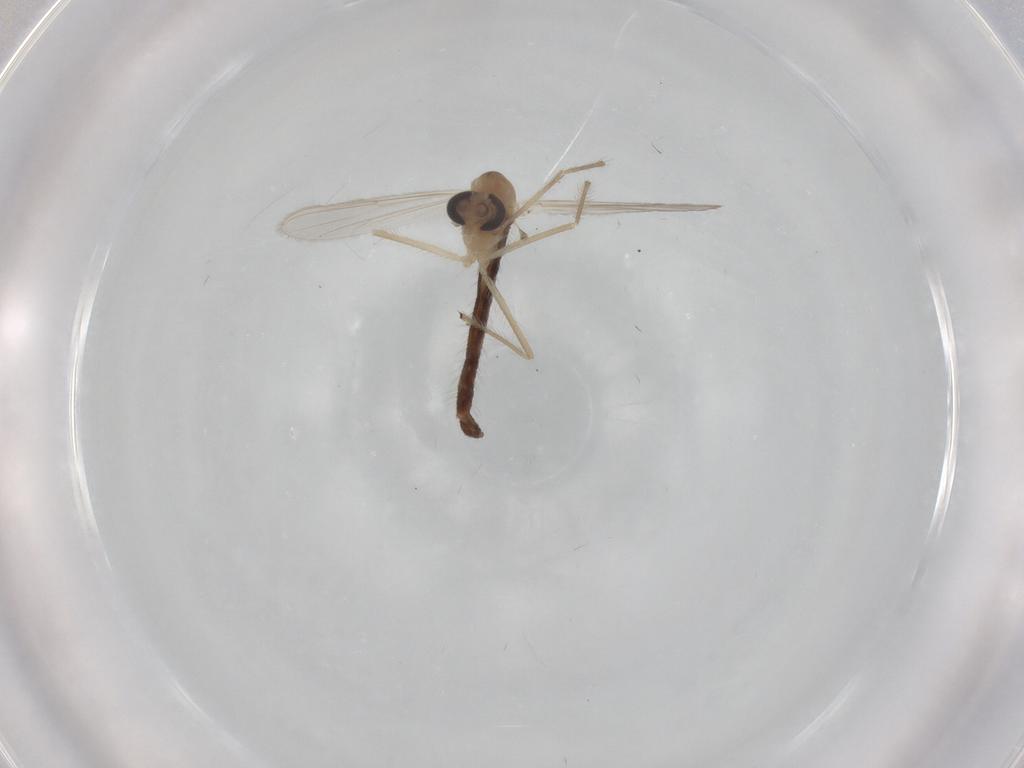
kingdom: Animalia
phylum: Arthropoda
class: Insecta
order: Diptera
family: Chironomidae
